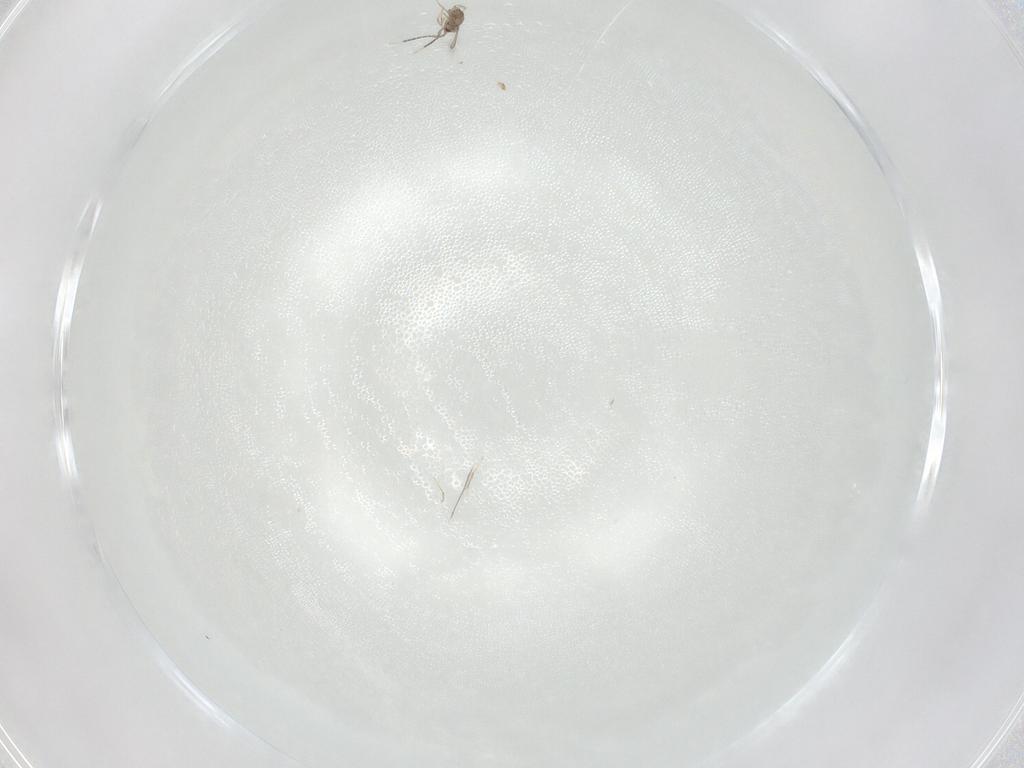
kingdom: Animalia
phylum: Arthropoda
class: Insecta
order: Hymenoptera
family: Mymaridae
